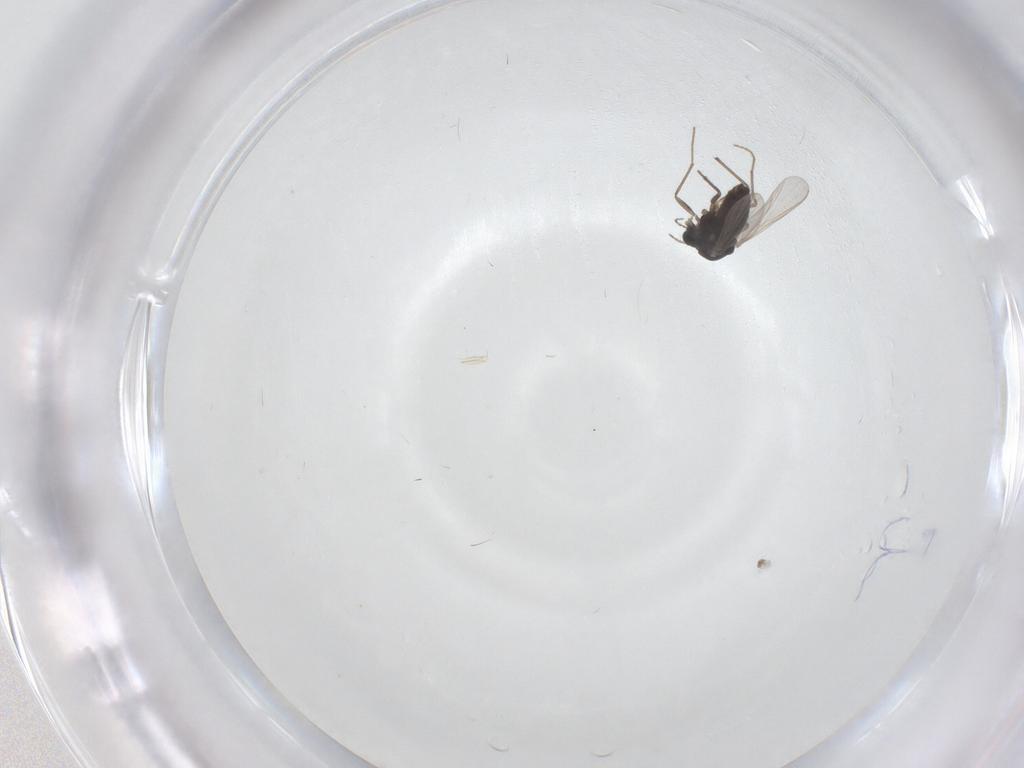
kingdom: Animalia
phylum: Arthropoda
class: Insecta
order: Diptera
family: Chironomidae
